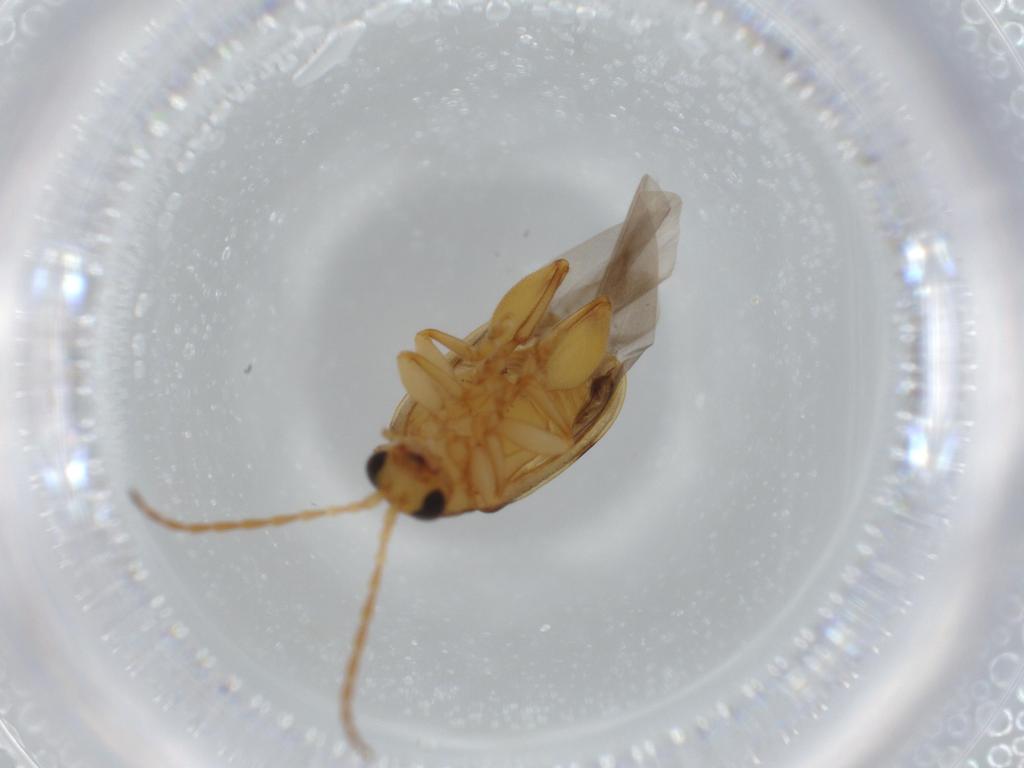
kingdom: Animalia
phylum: Arthropoda
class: Insecta
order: Coleoptera
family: Chrysomelidae
